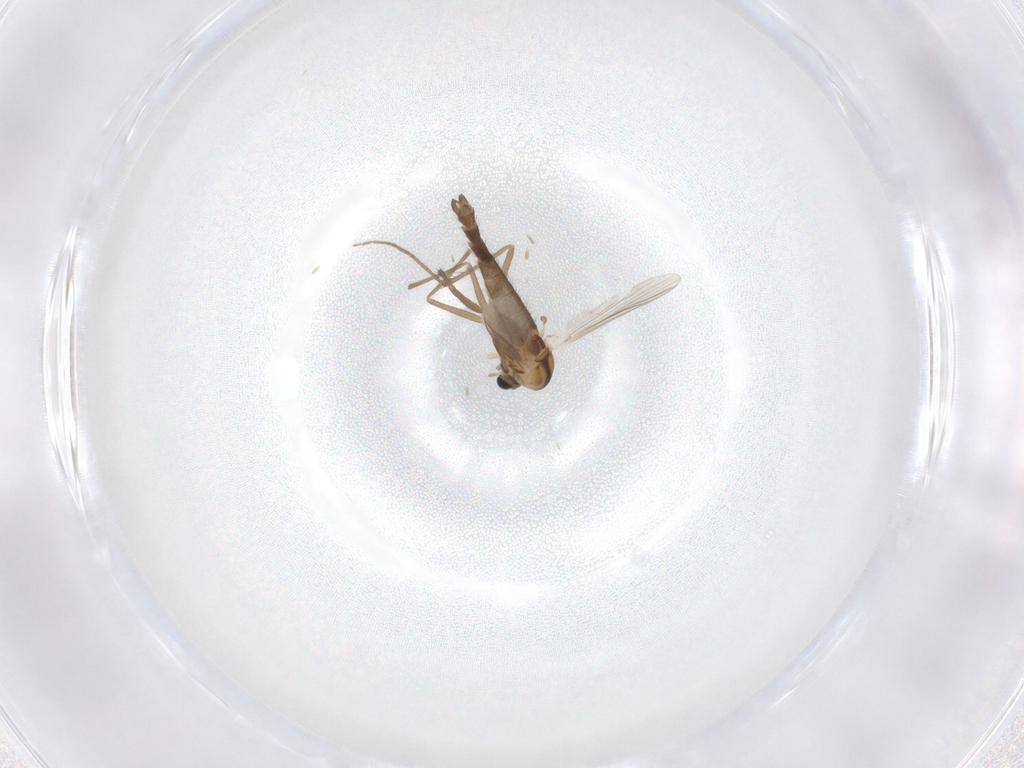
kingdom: Animalia
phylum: Arthropoda
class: Insecta
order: Diptera
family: Chironomidae
